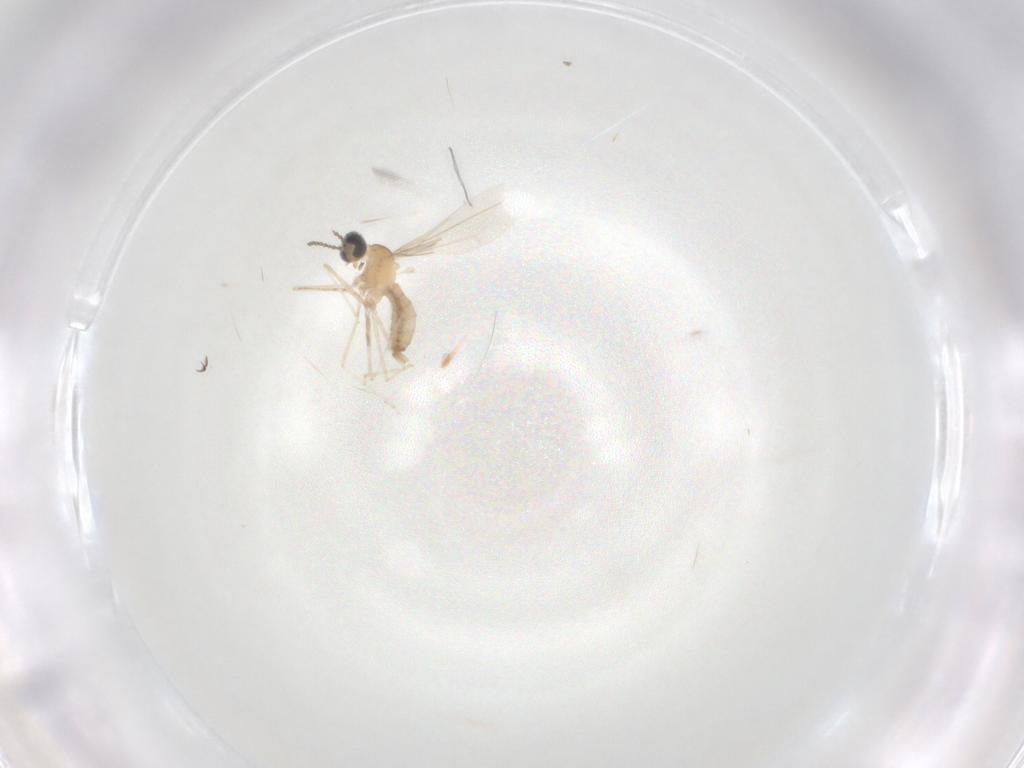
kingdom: Animalia
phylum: Arthropoda
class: Insecta
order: Diptera
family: Cecidomyiidae
